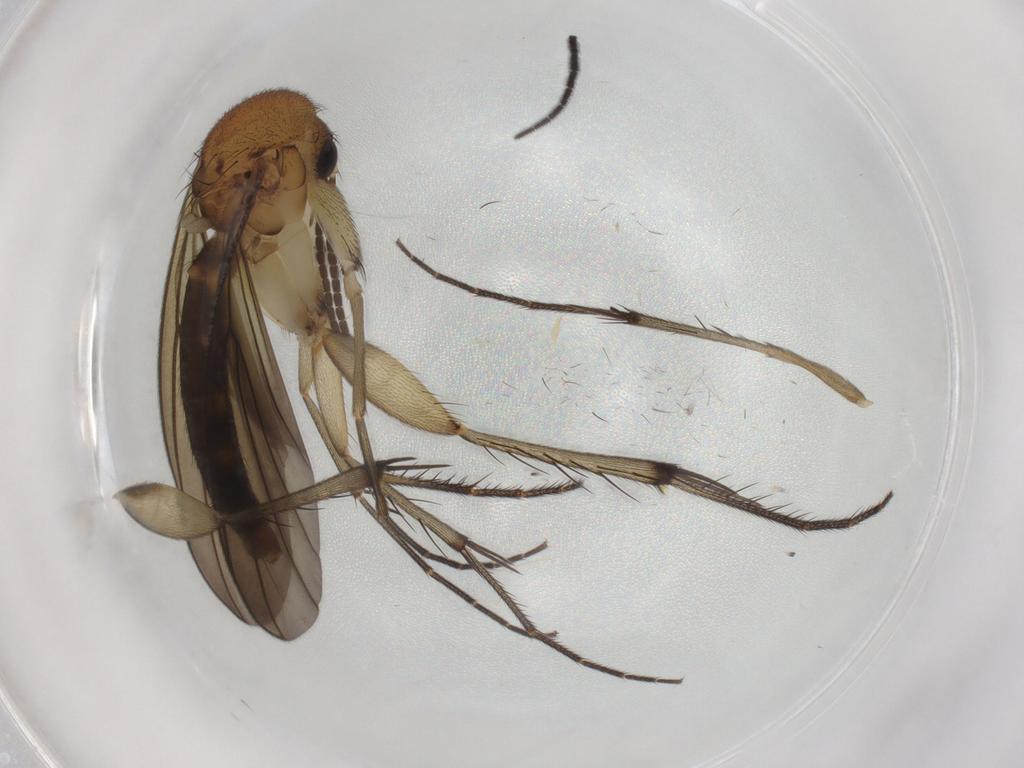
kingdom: Animalia
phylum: Arthropoda
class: Insecta
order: Diptera
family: Mycetophilidae
